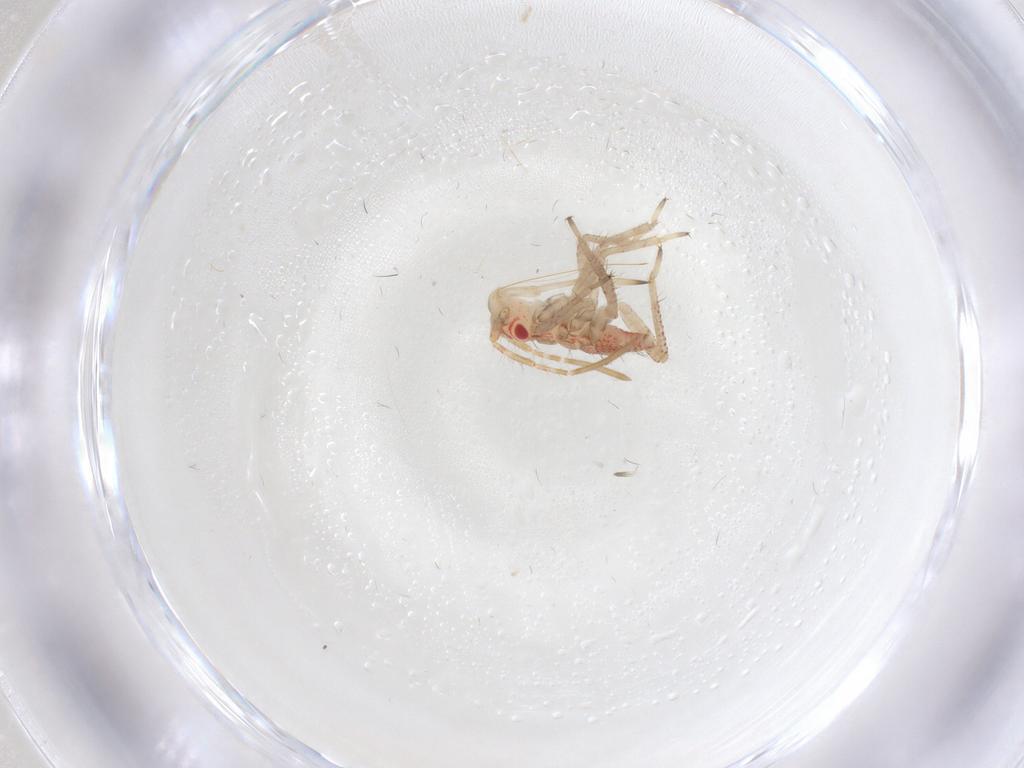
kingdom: Animalia
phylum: Arthropoda
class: Insecta
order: Hemiptera
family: Miridae
